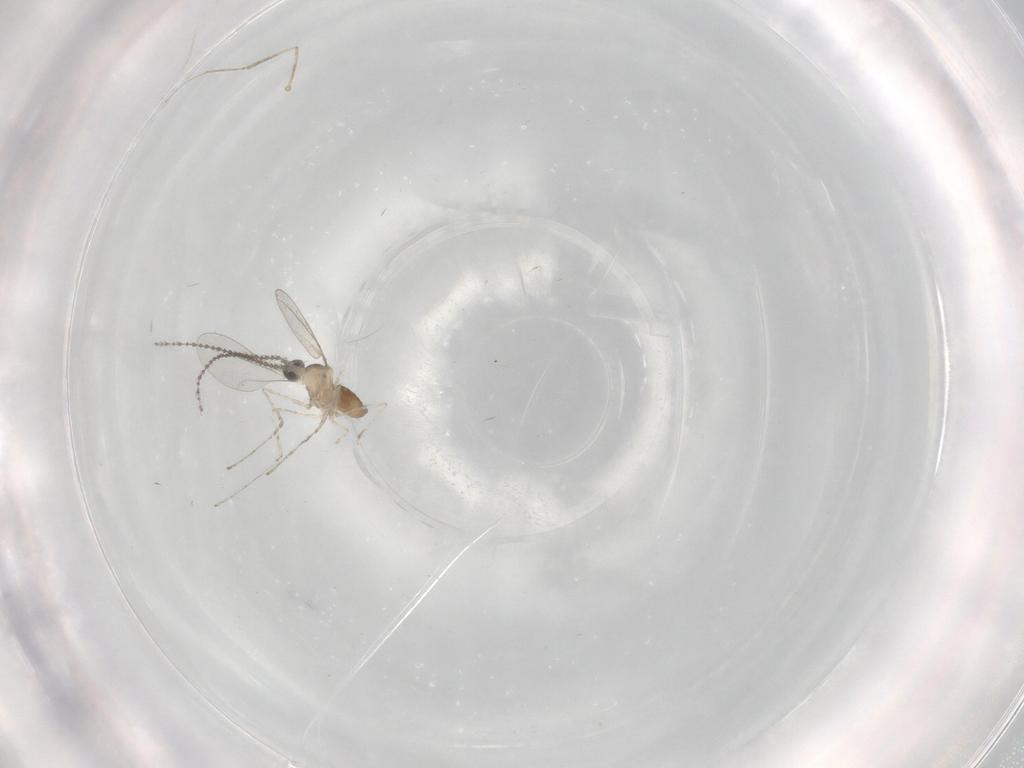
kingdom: Animalia
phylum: Arthropoda
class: Insecta
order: Diptera
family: Cecidomyiidae
